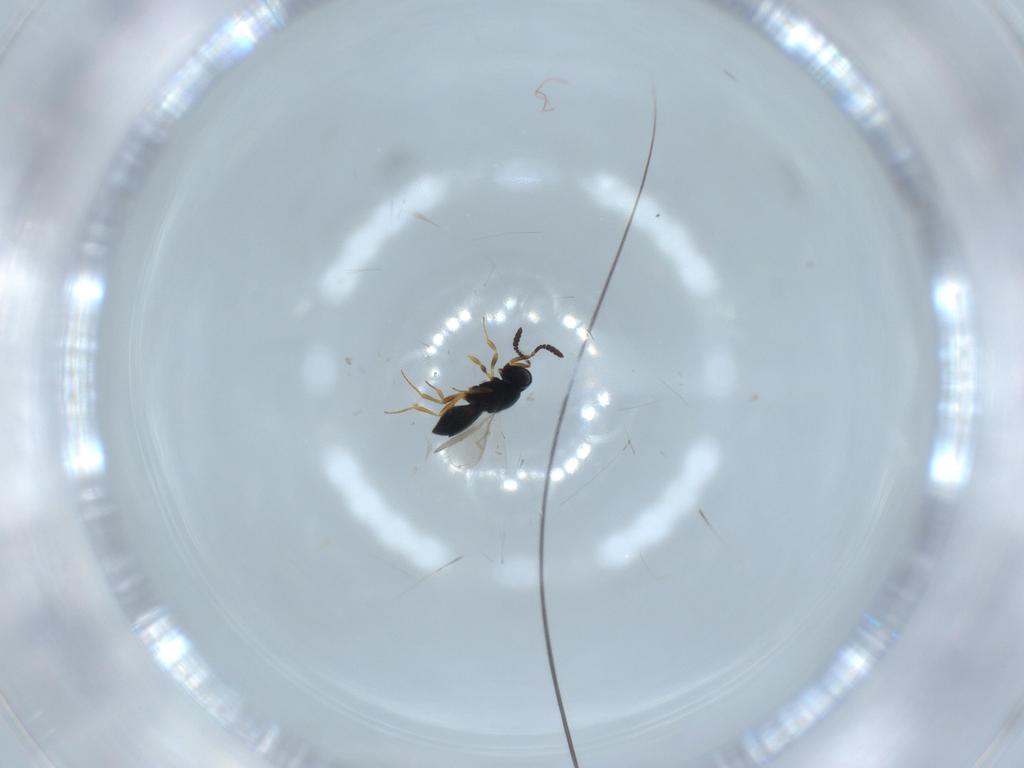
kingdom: Animalia
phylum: Arthropoda
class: Insecta
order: Hymenoptera
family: Scelionidae
